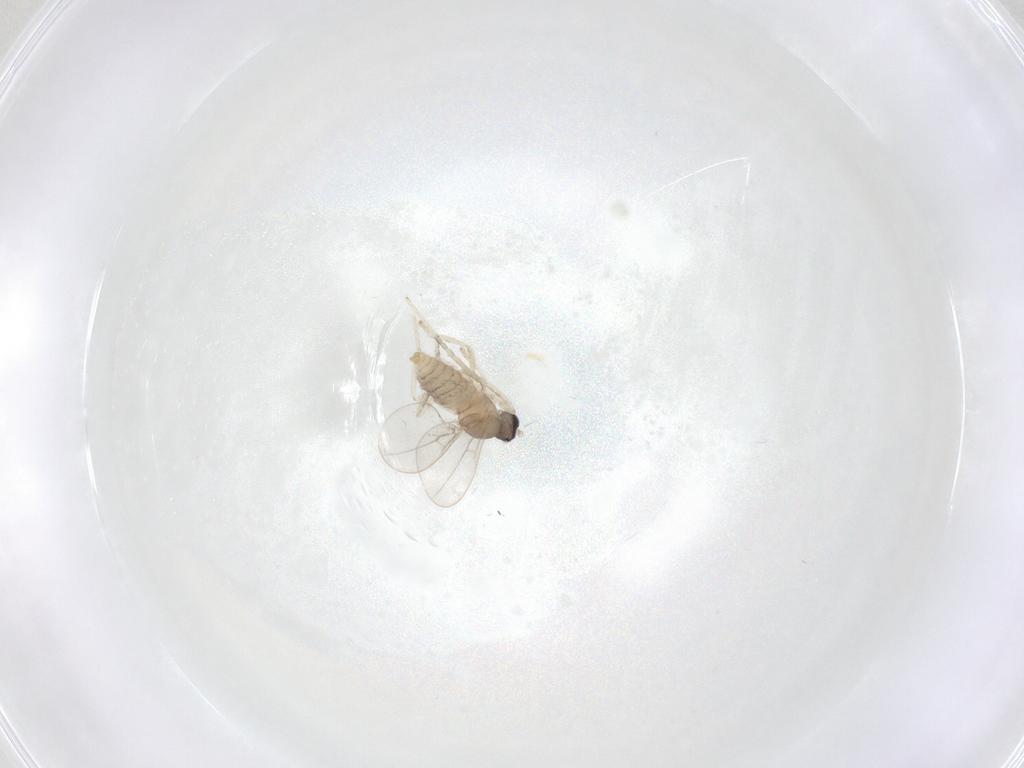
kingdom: Animalia
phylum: Arthropoda
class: Insecta
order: Diptera
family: Cecidomyiidae
